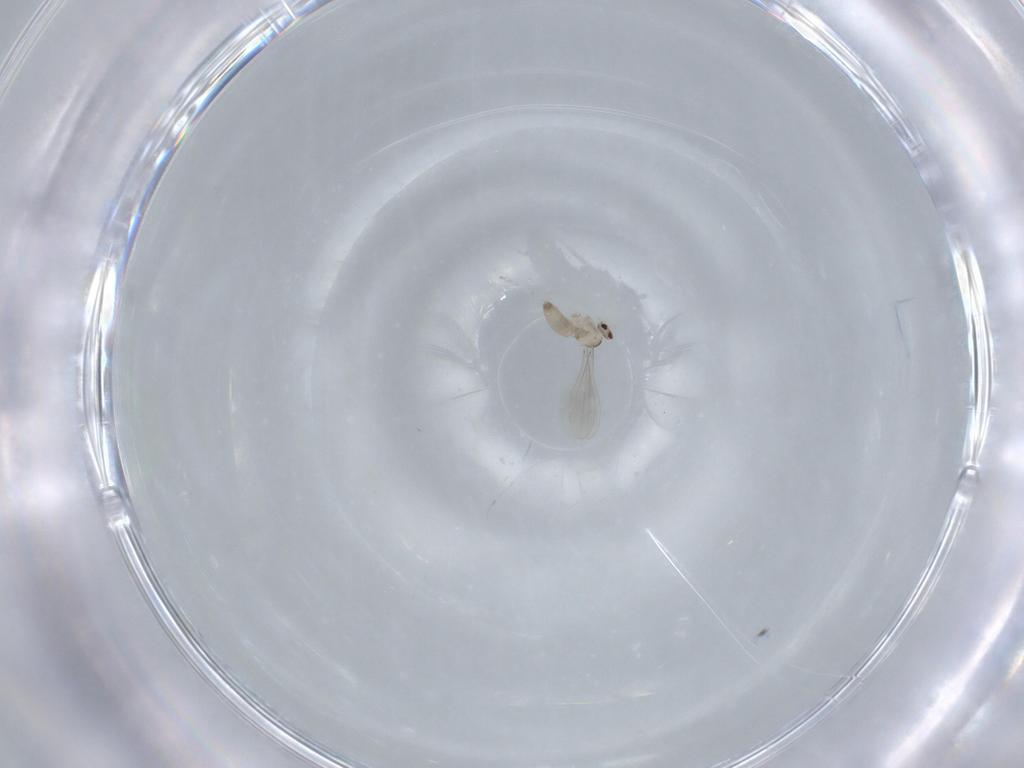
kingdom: Animalia
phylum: Arthropoda
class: Insecta
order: Diptera
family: Cecidomyiidae
